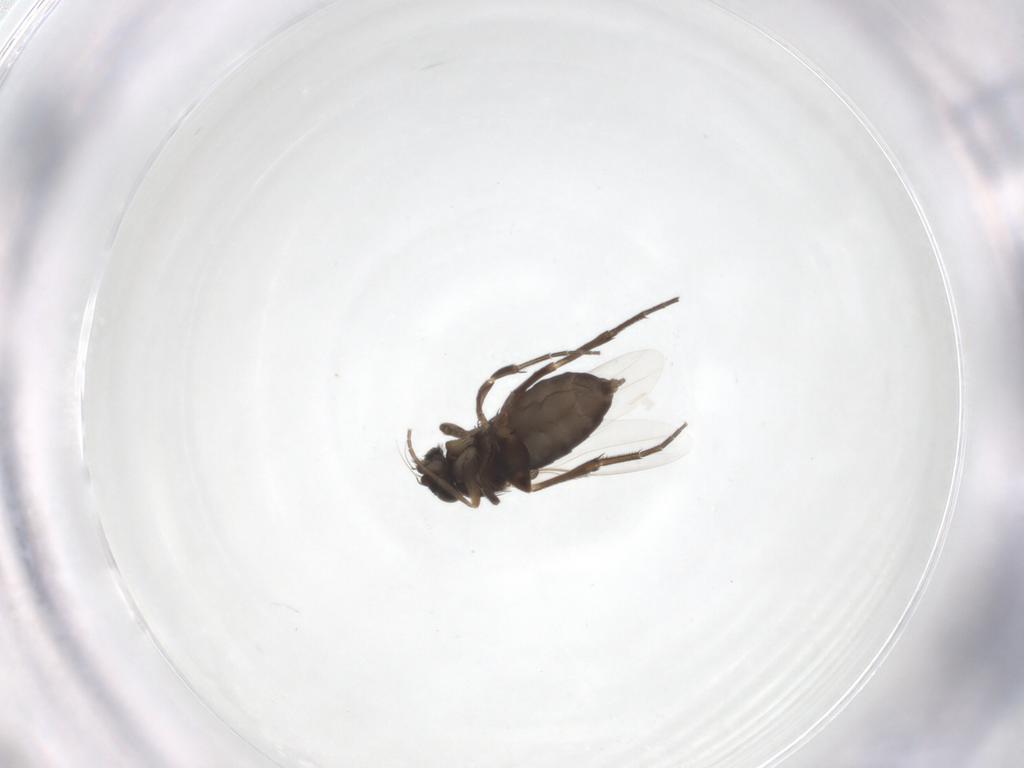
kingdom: Animalia
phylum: Arthropoda
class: Insecta
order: Diptera
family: Phoridae
